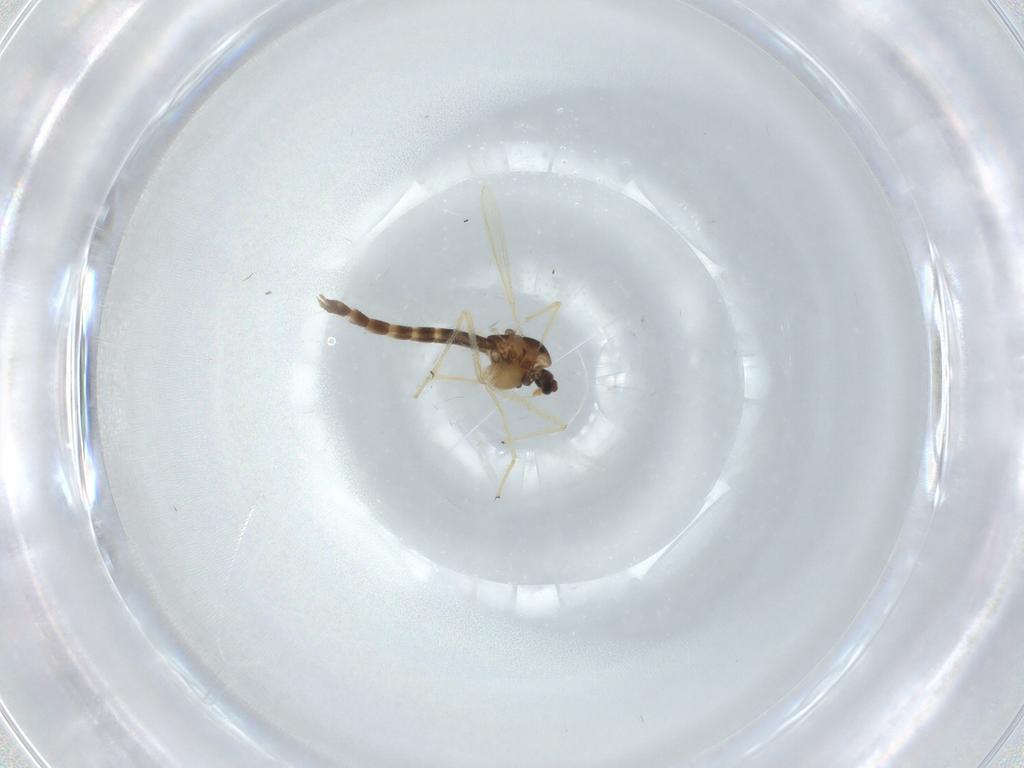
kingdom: Animalia
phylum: Arthropoda
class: Insecta
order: Diptera
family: Chironomidae
